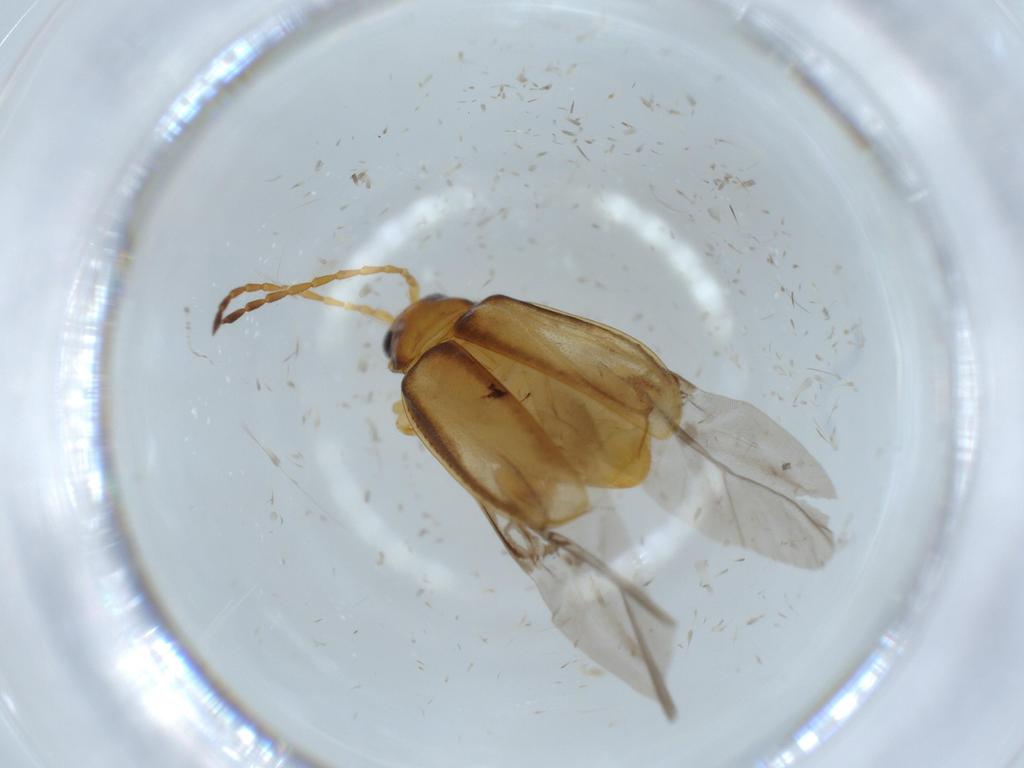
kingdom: Animalia
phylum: Arthropoda
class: Insecta
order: Coleoptera
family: Chrysomelidae
